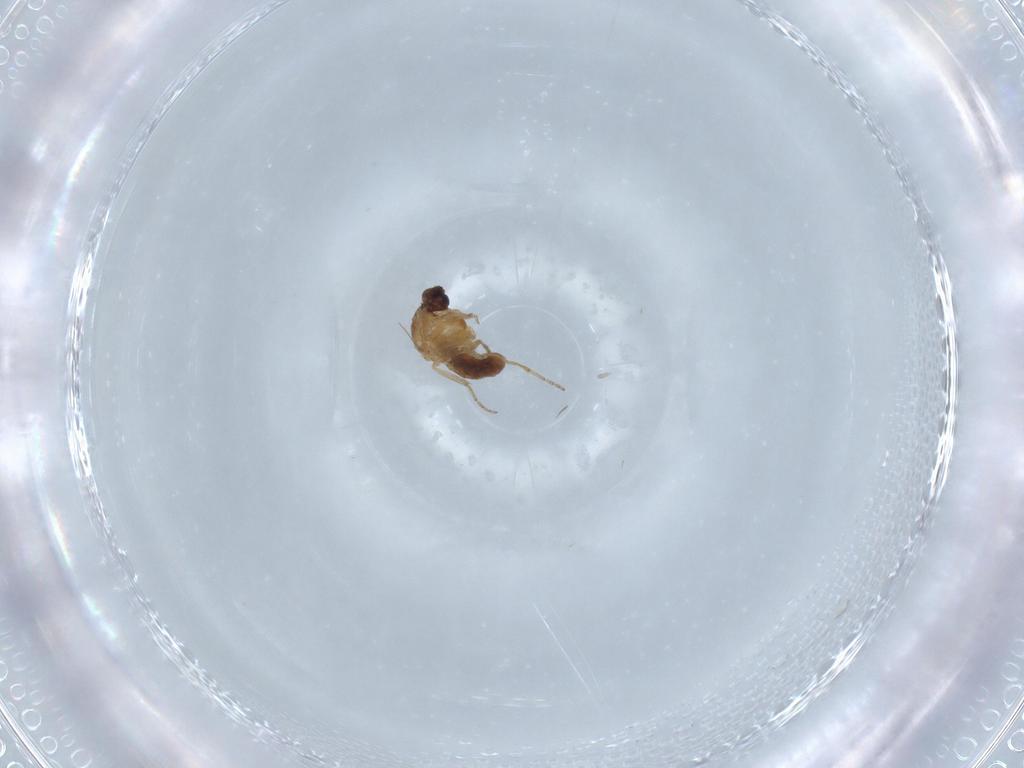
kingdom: Animalia
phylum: Arthropoda
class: Insecta
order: Diptera
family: Ceratopogonidae
